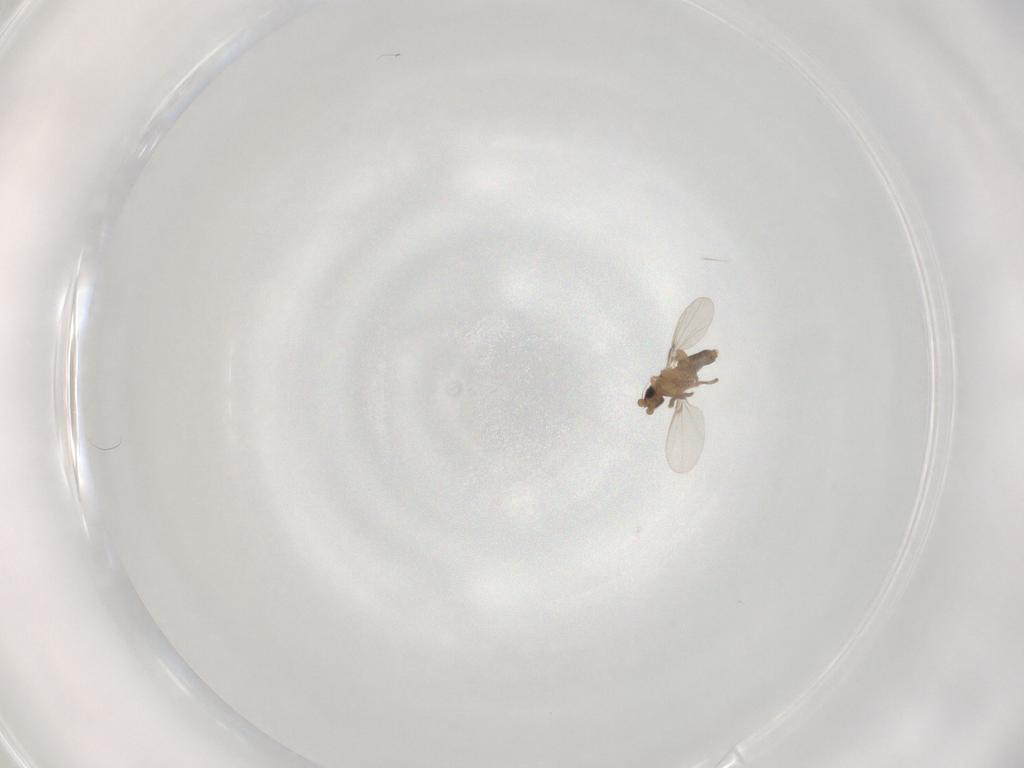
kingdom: Animalia
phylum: Arthropoda
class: Insecta
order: Diptera
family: Phoridae
